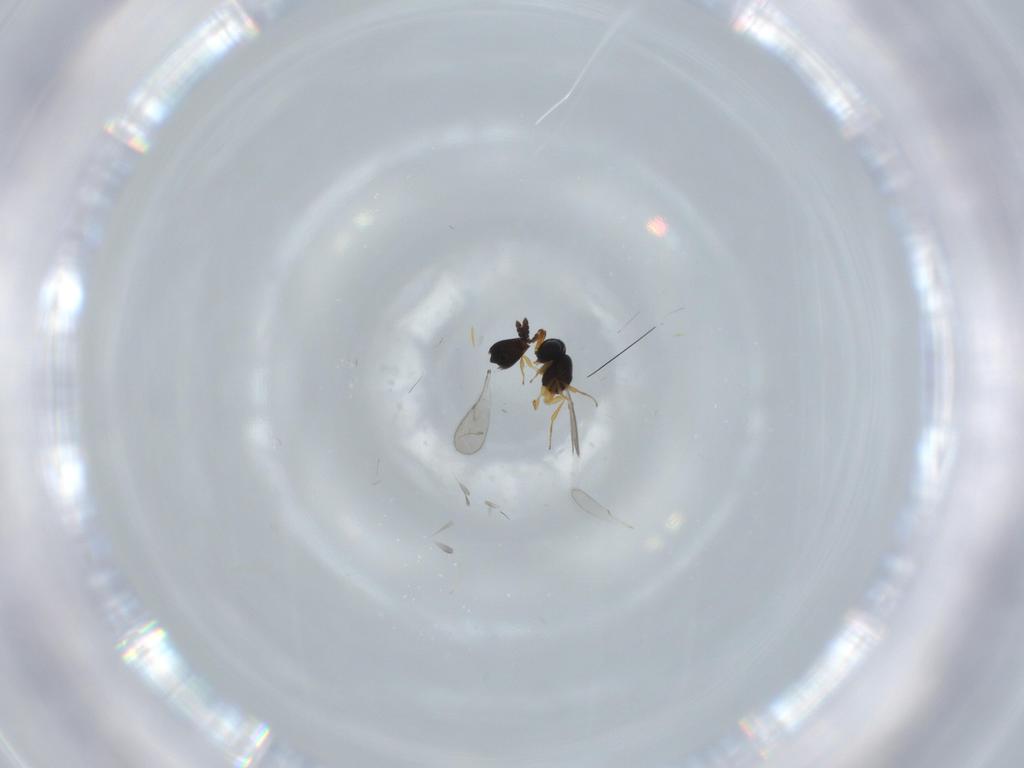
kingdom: Animalia
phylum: Arthropoda
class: Insecta
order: Hymenoptera
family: Scelionidae
